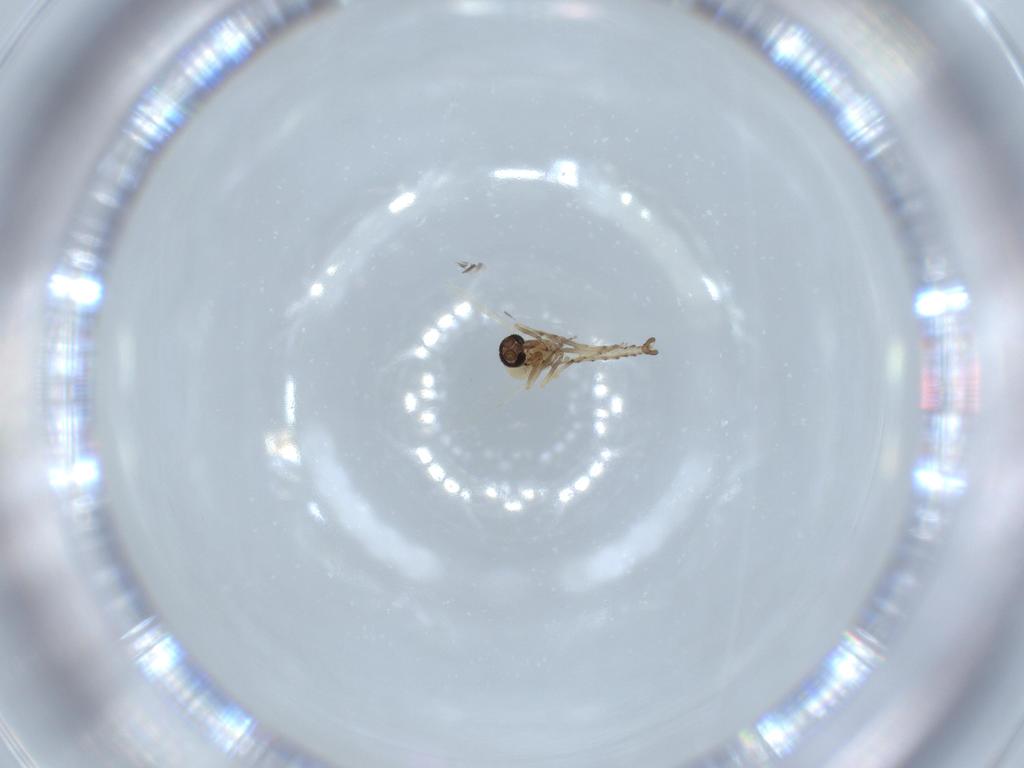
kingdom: Animalia
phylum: Arthropoda
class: Insecta
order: Diptera
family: Ceratopogonidae
